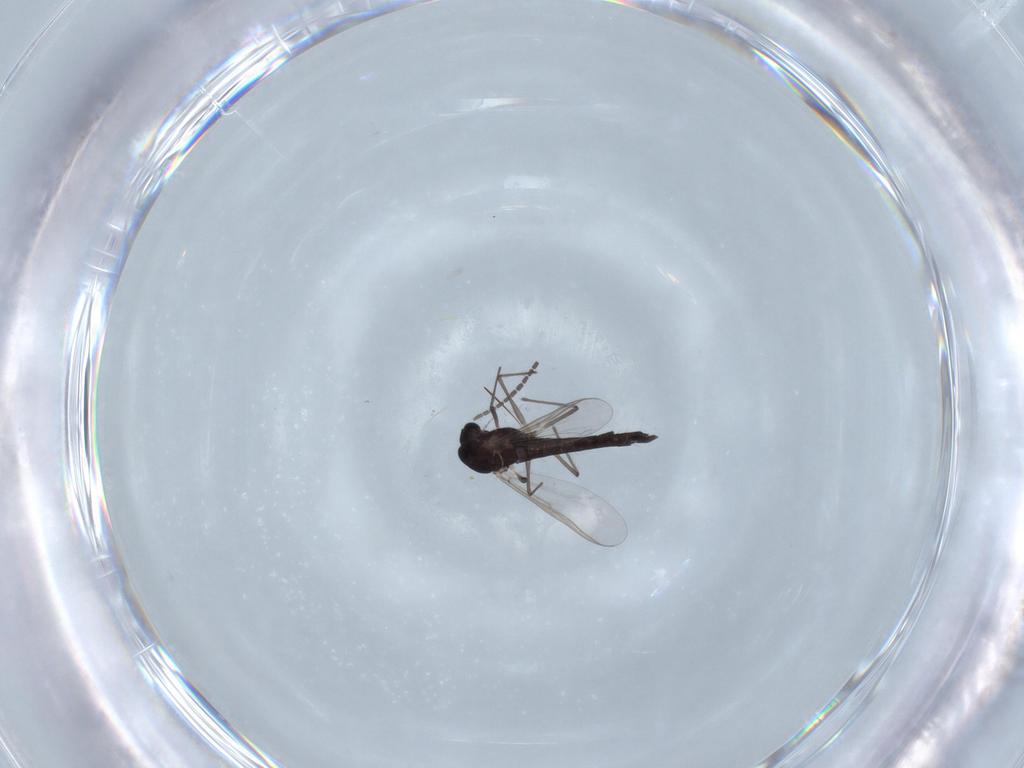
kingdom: Animalia
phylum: Arthropoda
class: Insecta
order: Diptera
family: Chironomidae
